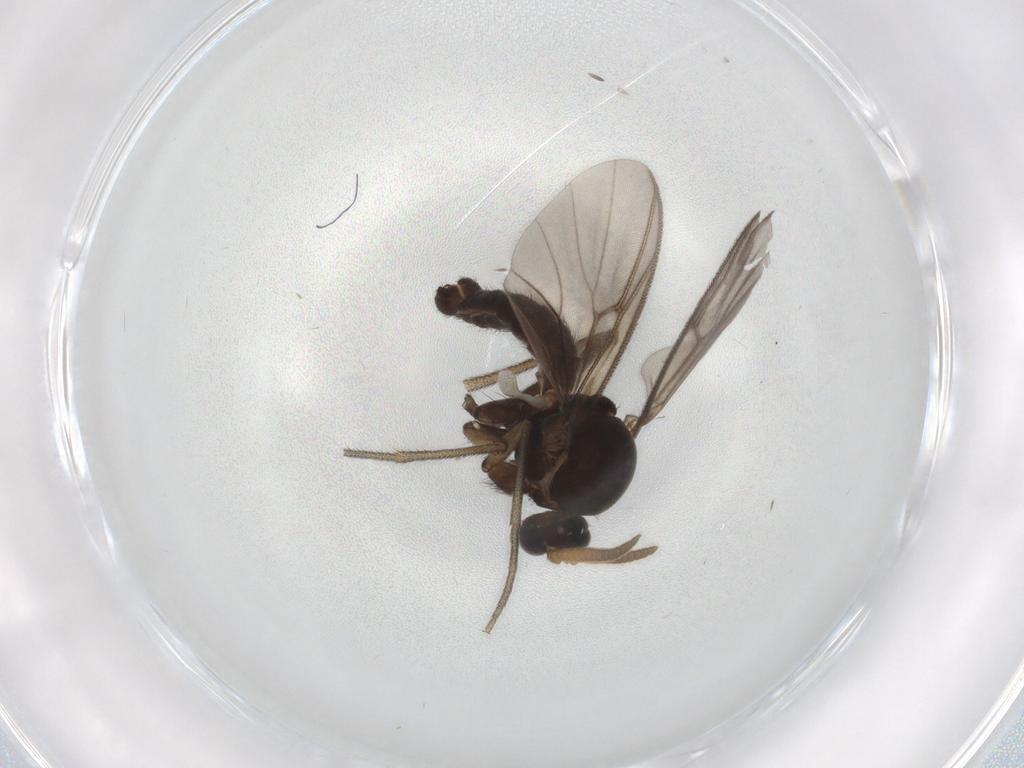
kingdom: Animalia
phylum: Arthropoda
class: Insecta
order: Diptera
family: Mycetophilidae
